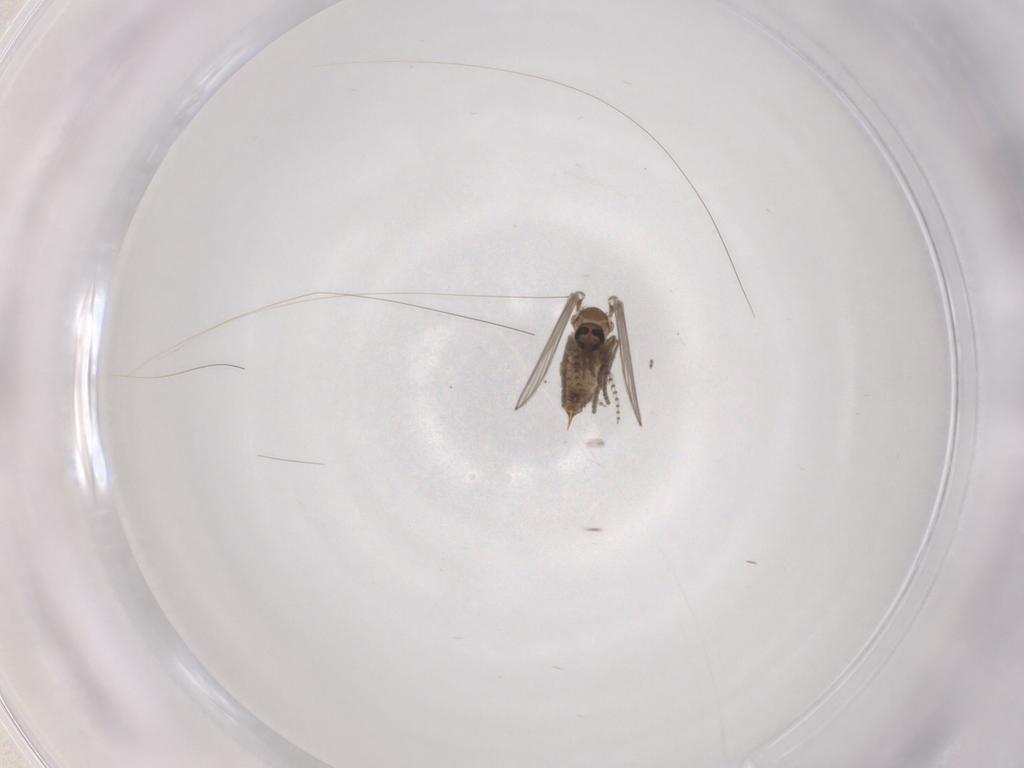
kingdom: Animalia
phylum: Arthropoda
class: Insecta
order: Diptera
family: Psychodidae
